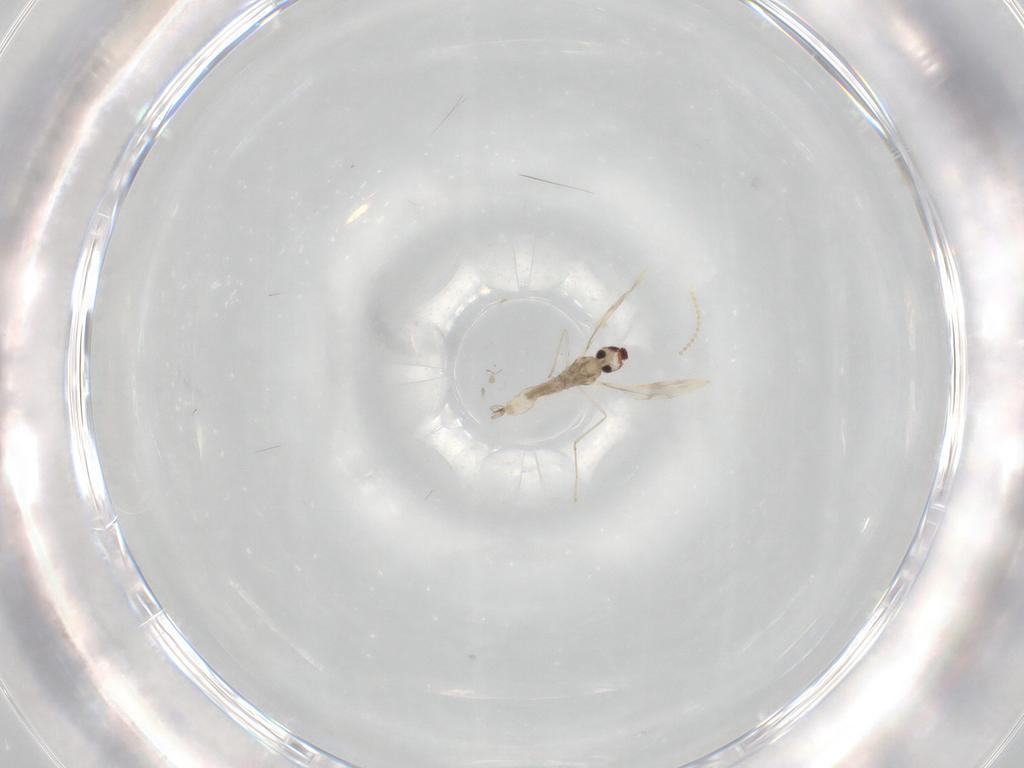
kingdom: Animalia
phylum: Arthropoda
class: Insecta
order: Diptera
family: Cecidomyiidae
